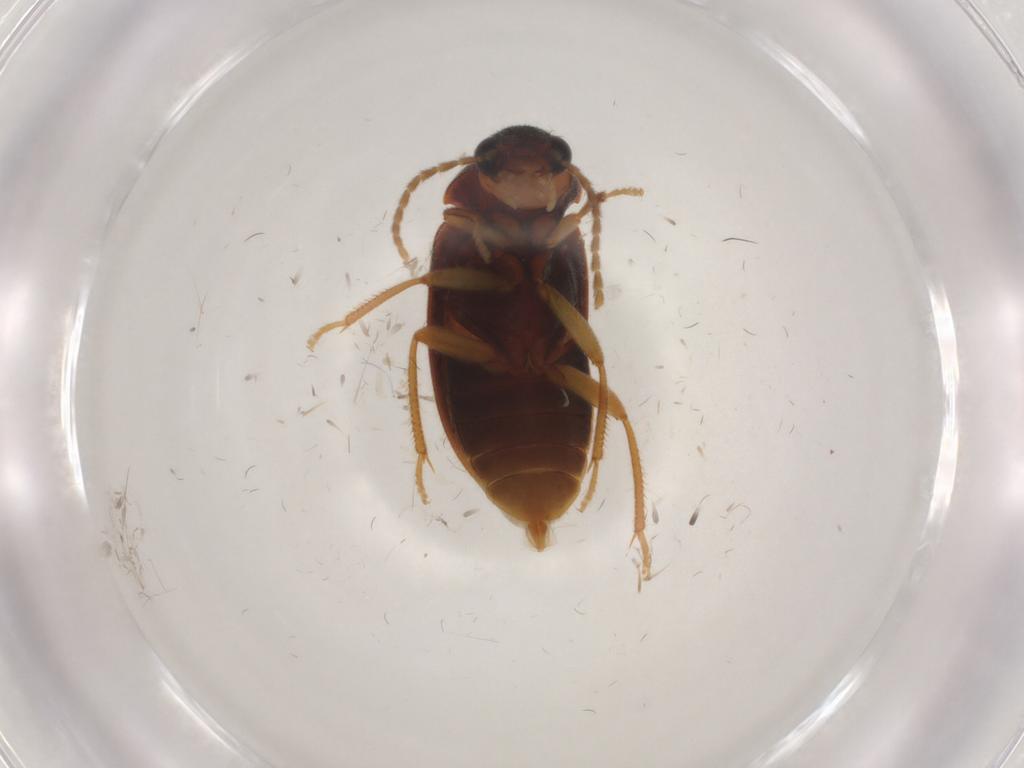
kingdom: Animalia
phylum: Arthropoda
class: Insecta
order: Coleoptera
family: Ptilodactylidae
